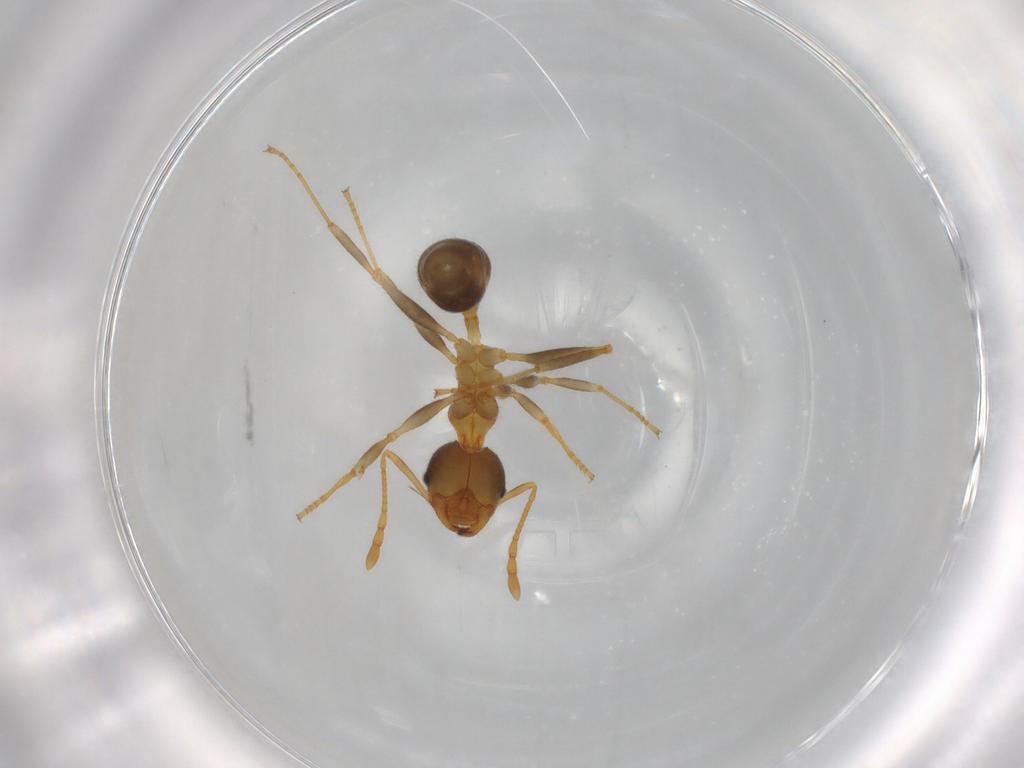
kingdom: Animalia
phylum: Arthropoda
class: Insecta
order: Hymenoptera
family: Formicidae
